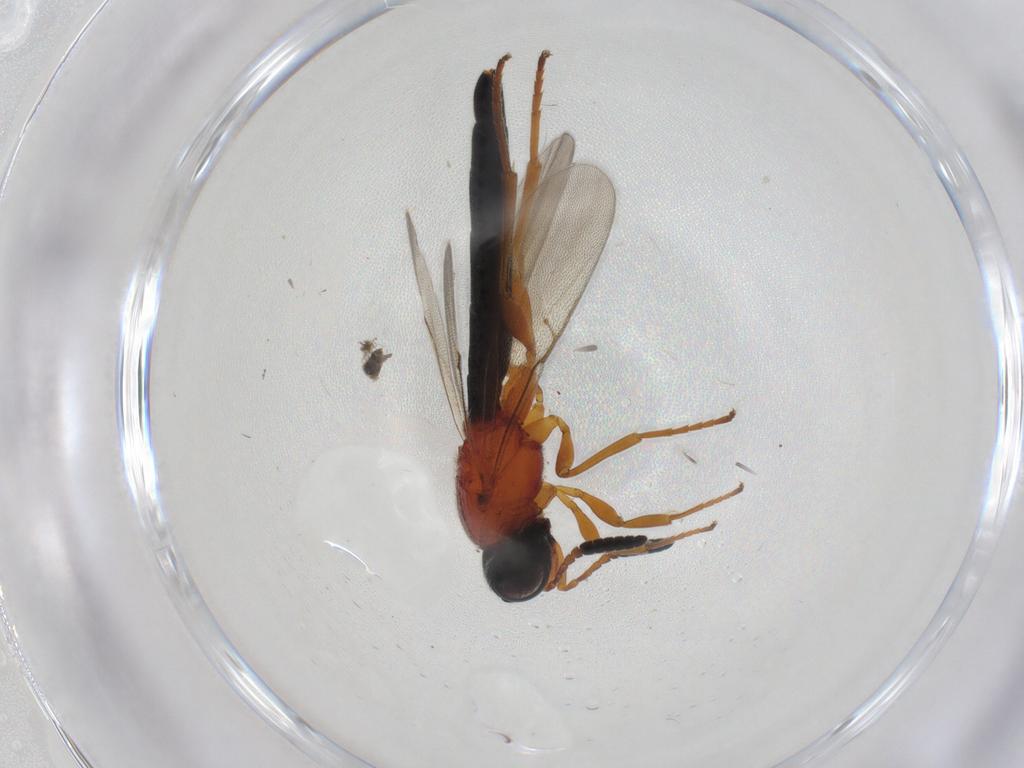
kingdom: Animalia
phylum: Arthropoda
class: Insecta
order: Hymenoptera
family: Scelionidae
